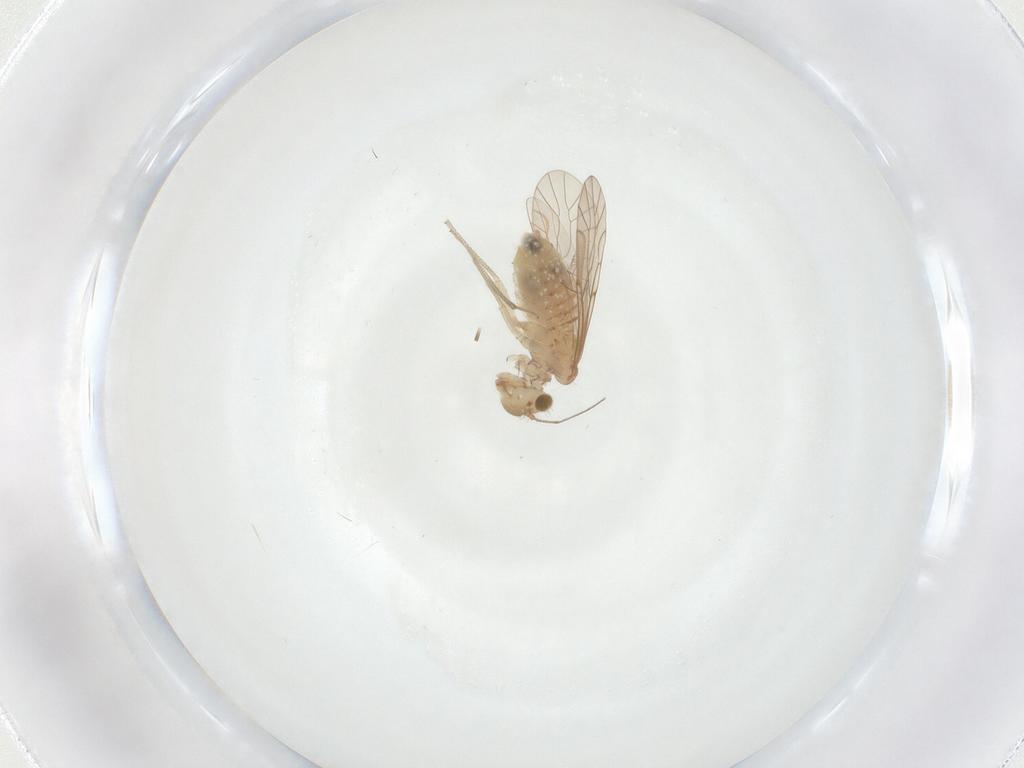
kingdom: Animalia
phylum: Arthropoda
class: Insecta
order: Psocodea
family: Lachesillidae
